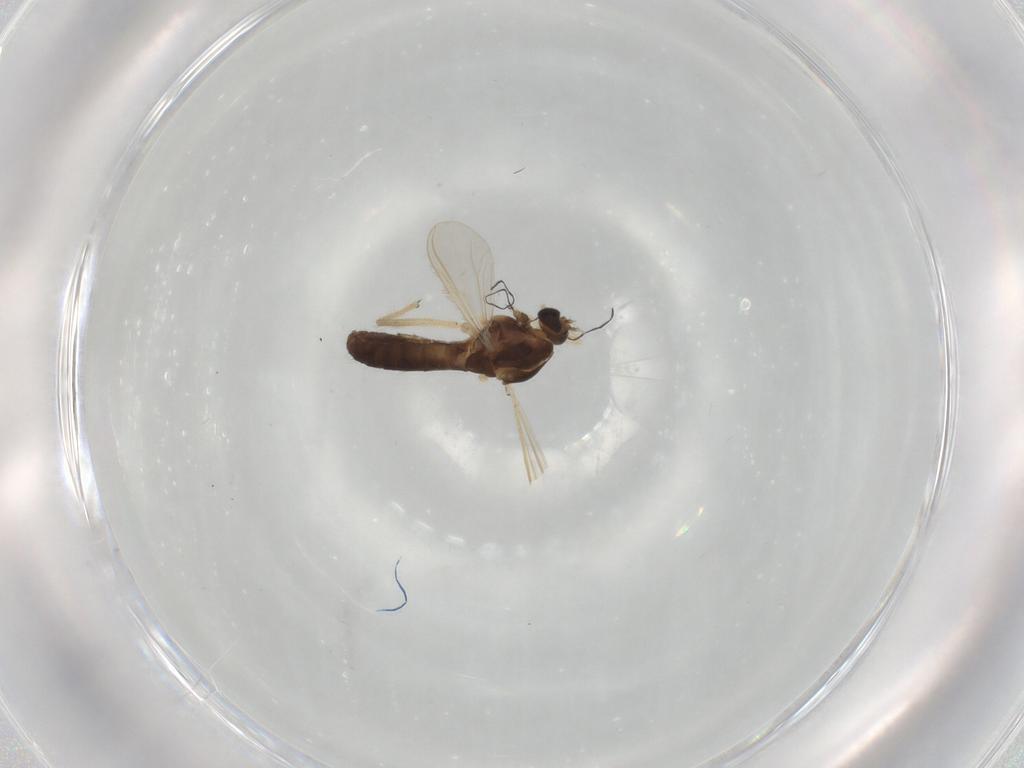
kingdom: Animalia
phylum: Arthropoda
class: Insecta
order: Diptera
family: Chironomidae
